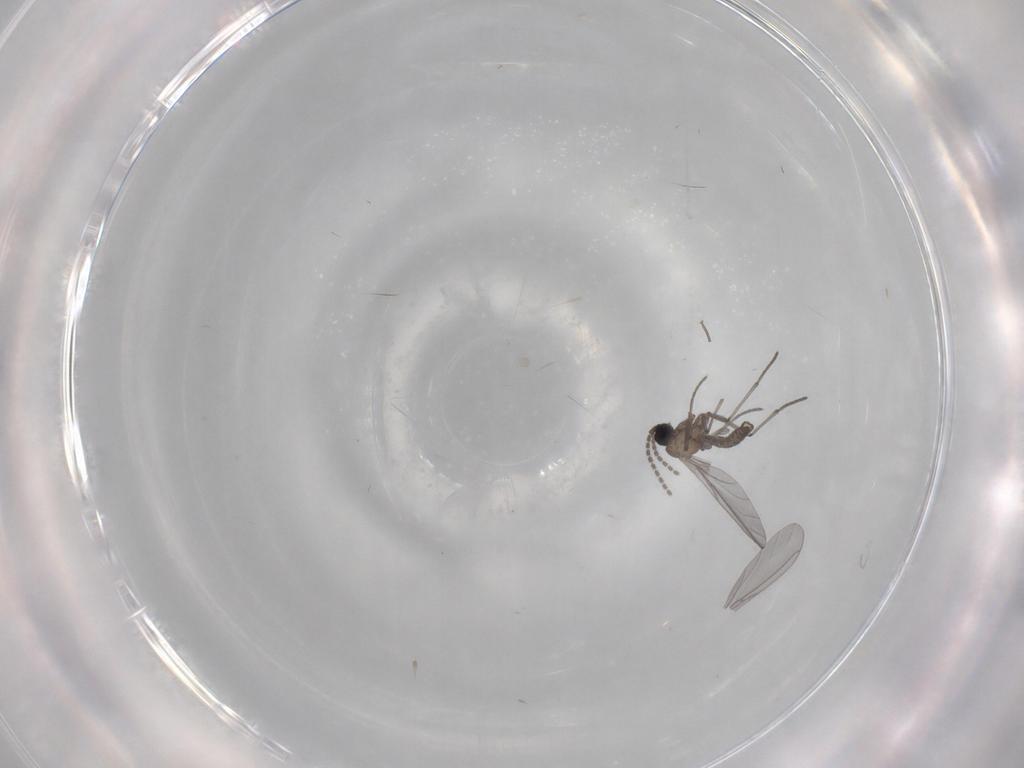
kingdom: Animalia
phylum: Arthropoda
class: Insecta
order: Diptera
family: Sciaridae
